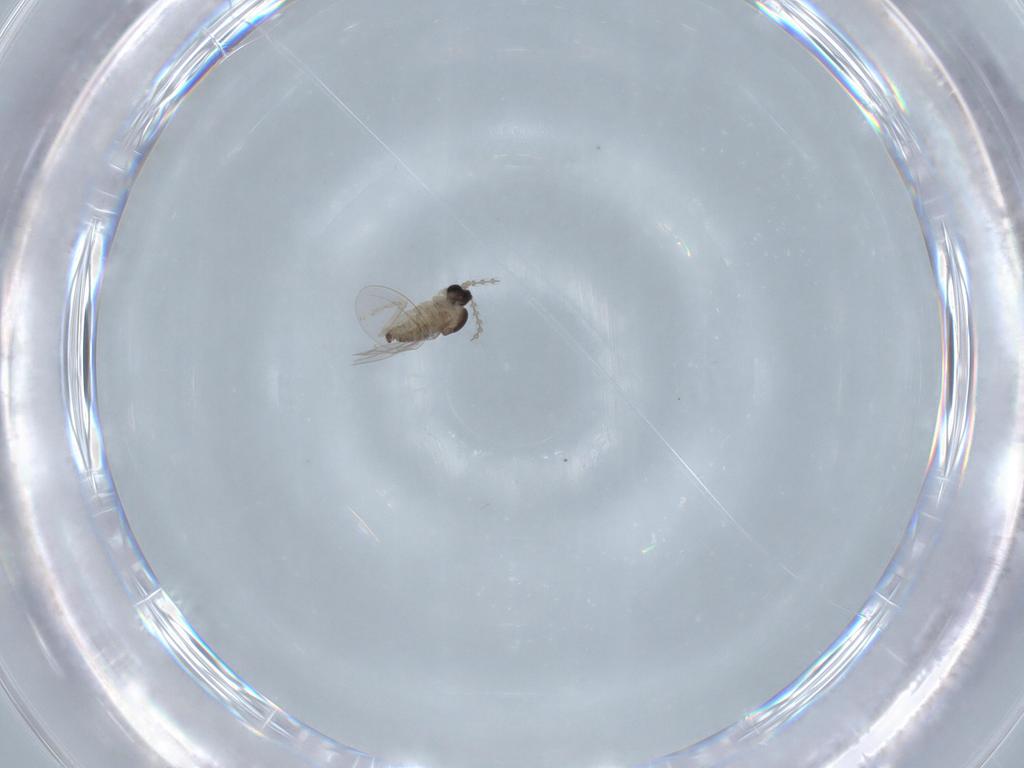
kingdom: Animalia
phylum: Arthropoda
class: Insecta
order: Diptera
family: Cecidomyiidae
